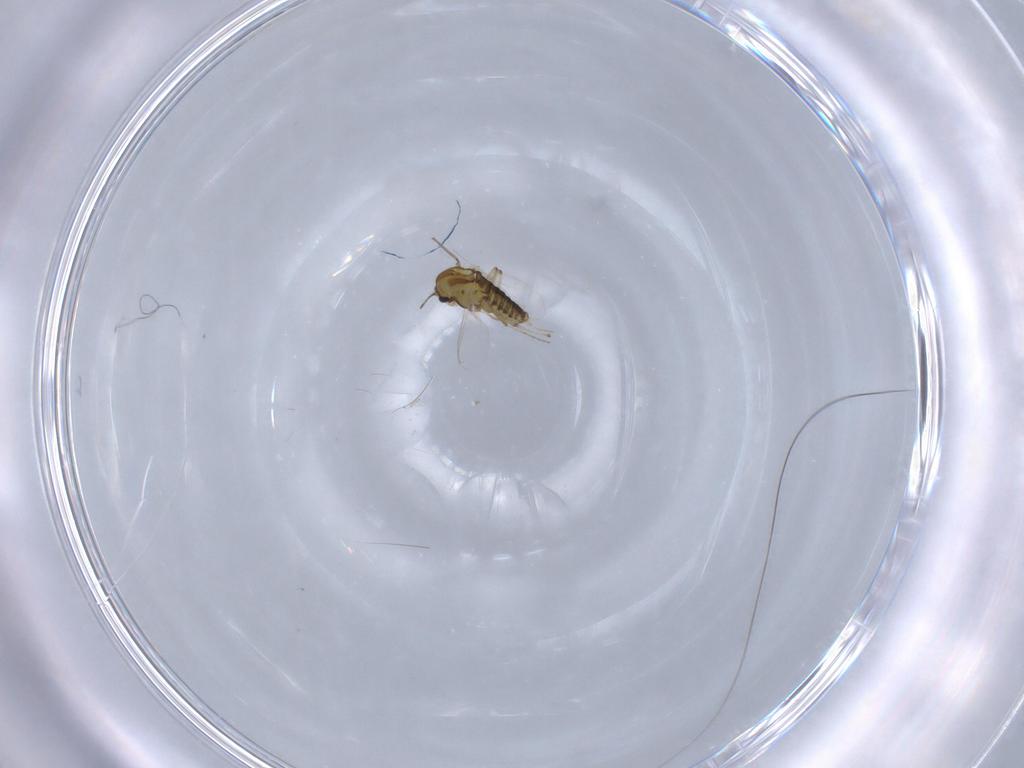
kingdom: Animalia
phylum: Arthropoda
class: Insecta
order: Diptera
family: Chironomidae
